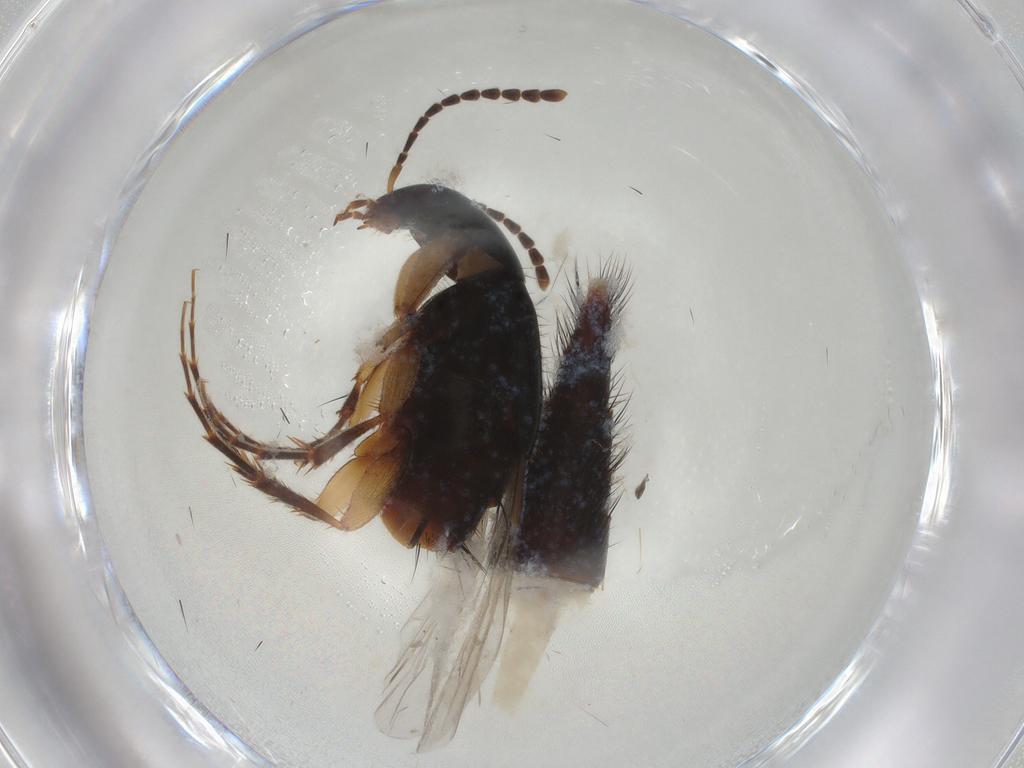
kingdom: Animalia
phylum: Arthropoda
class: Insecta
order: Coleoptera
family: Staphylinidae
